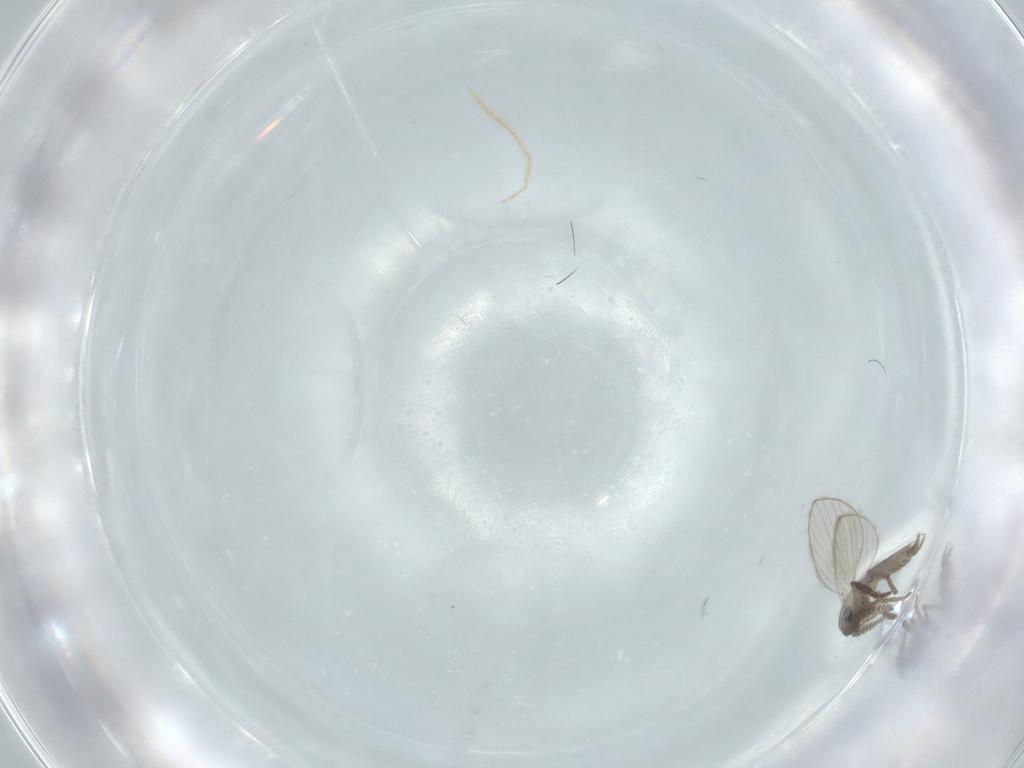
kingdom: Animalia
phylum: Arthropoda
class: Insecta
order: Diptera
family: Psychodidae
